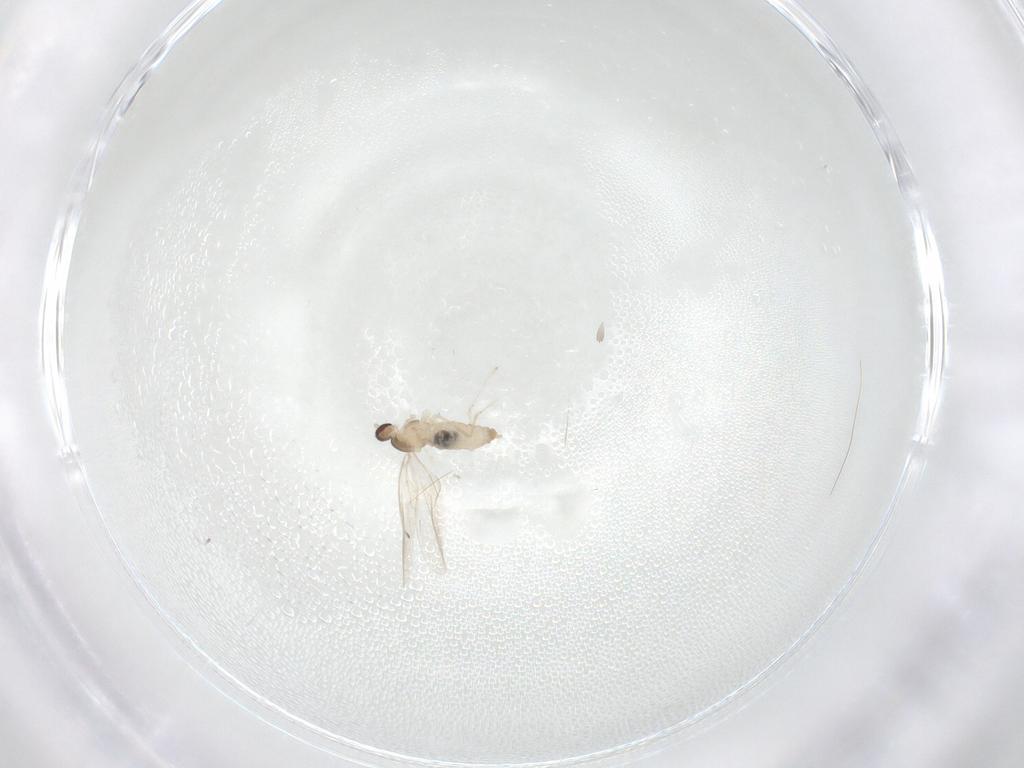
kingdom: Animalia
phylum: Arthropoda
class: Insecta
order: Diptera
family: Cecidomyiidae
